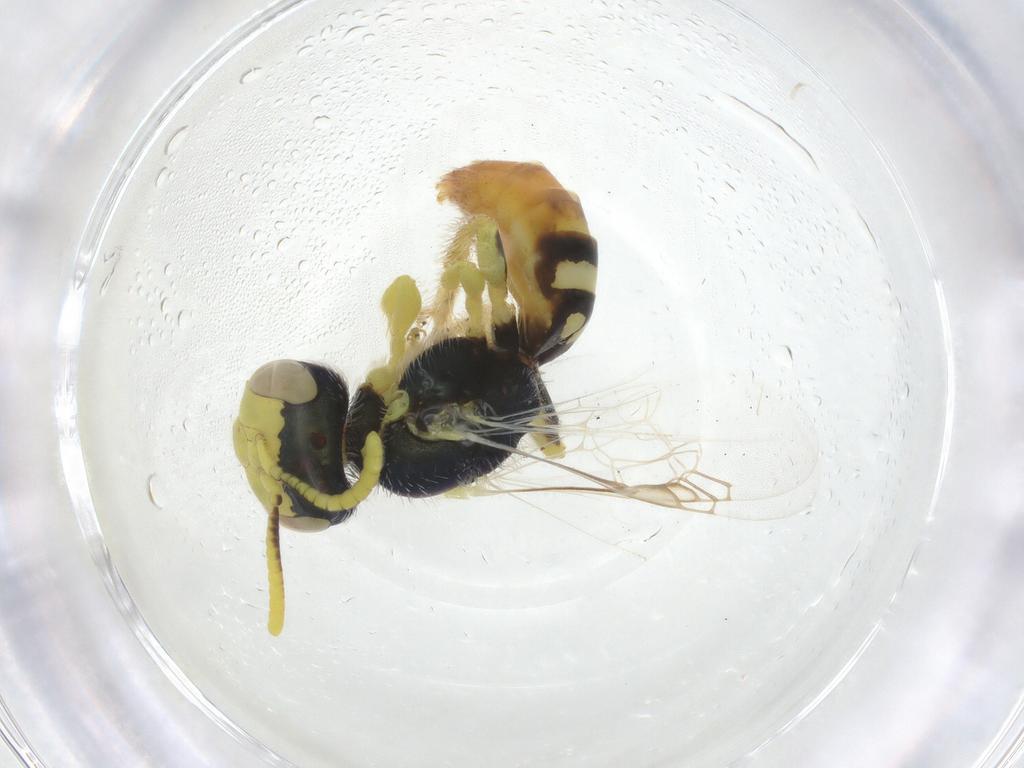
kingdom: Animalia
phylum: Arthropoda
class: Insecta
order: Hymenoptera
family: Andrenidae
